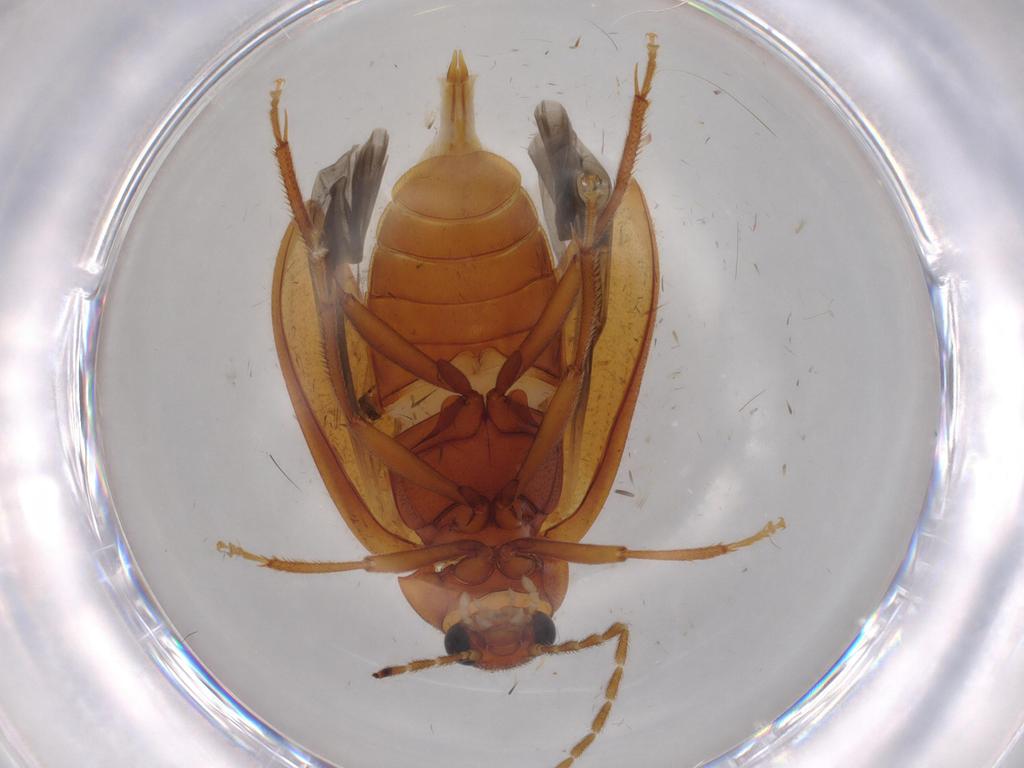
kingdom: Animalia
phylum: Arthropoda
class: Insecta
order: Coleoptera
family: Ptilodactylidae
